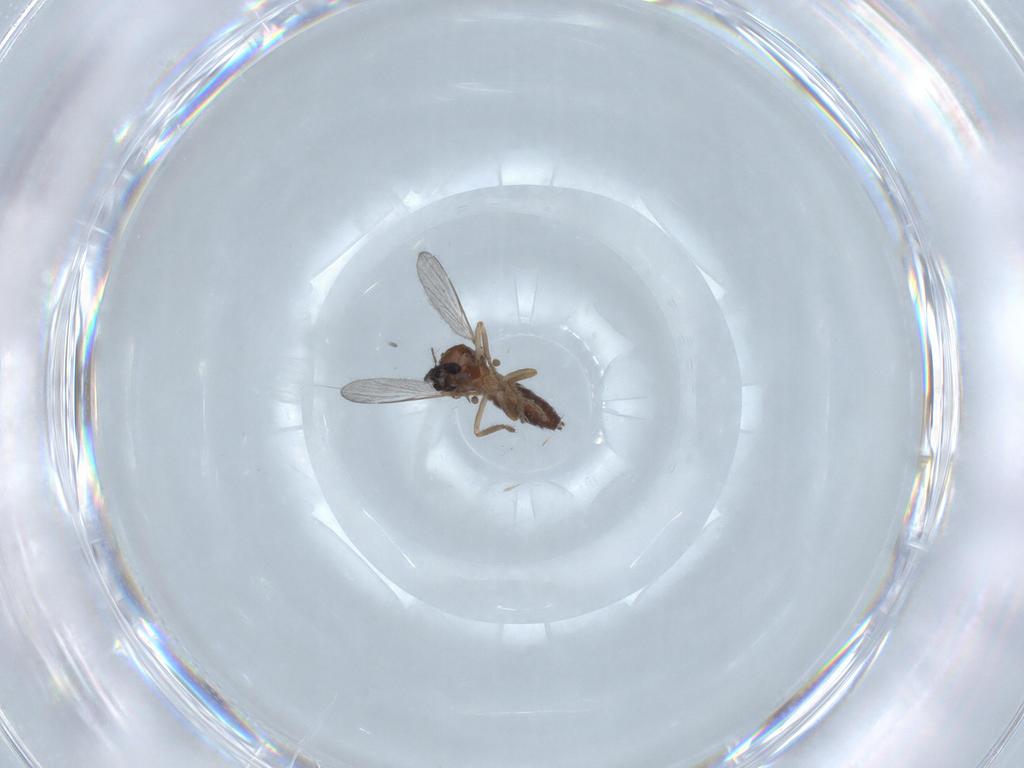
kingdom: Animalia
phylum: Arthropoda
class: Insecta
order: Diptera
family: Ceratopogonidae
